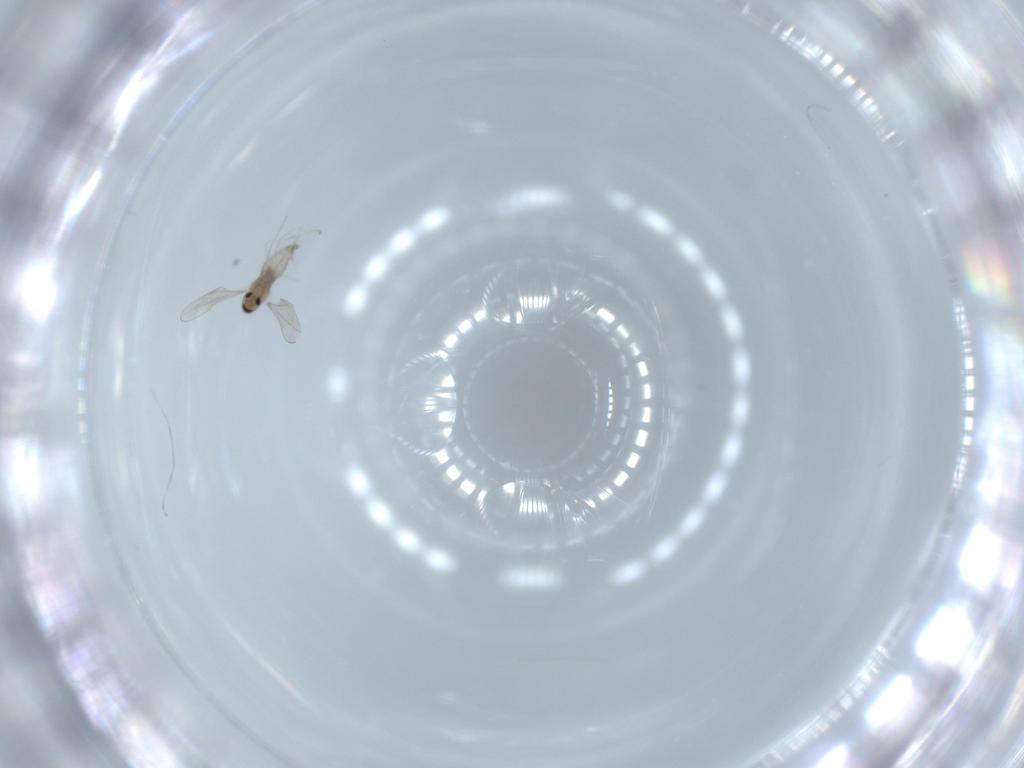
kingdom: Animalia
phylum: Arthropoda
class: Insecta
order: Diptera
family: Cecidomyiidae
